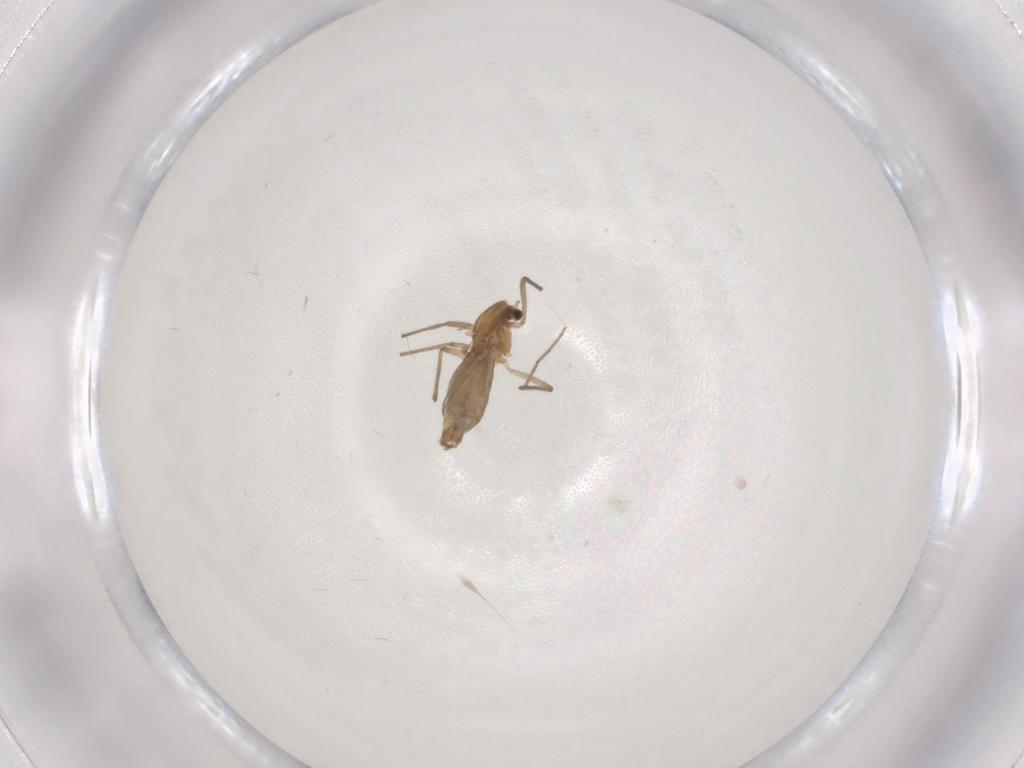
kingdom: Animalia
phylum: Arthropoda
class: Insecta
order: Diptera
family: Chironomidae
